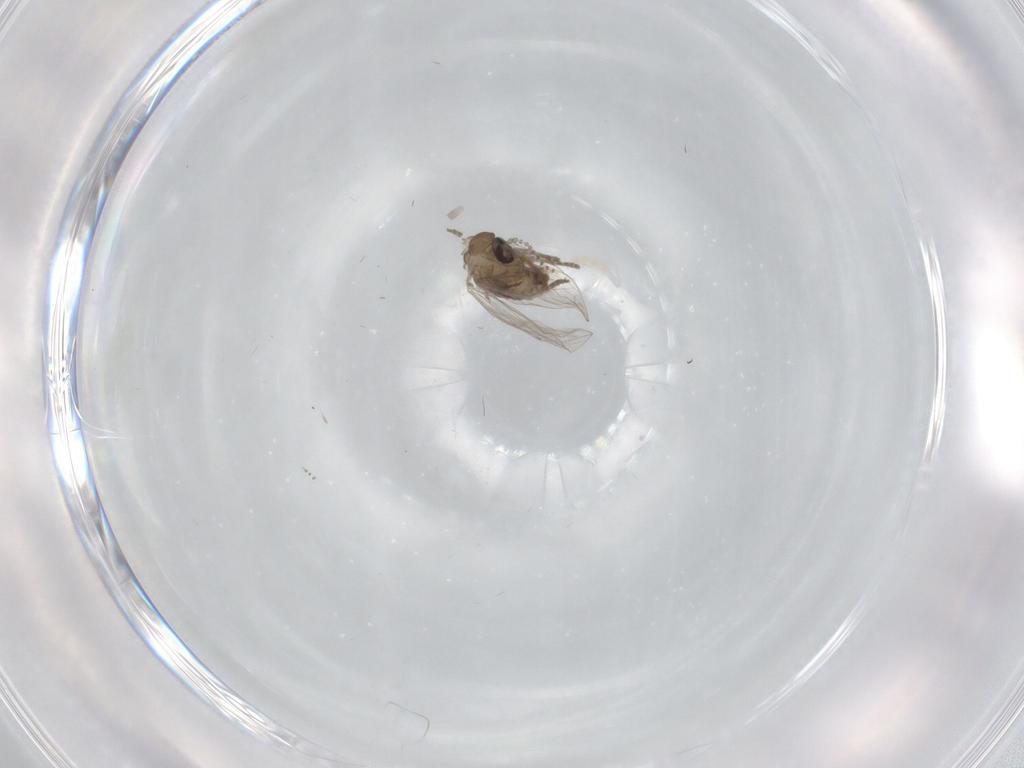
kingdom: Animalia
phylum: Arthropoda
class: Insecta
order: Diptera
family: Psychodidae
